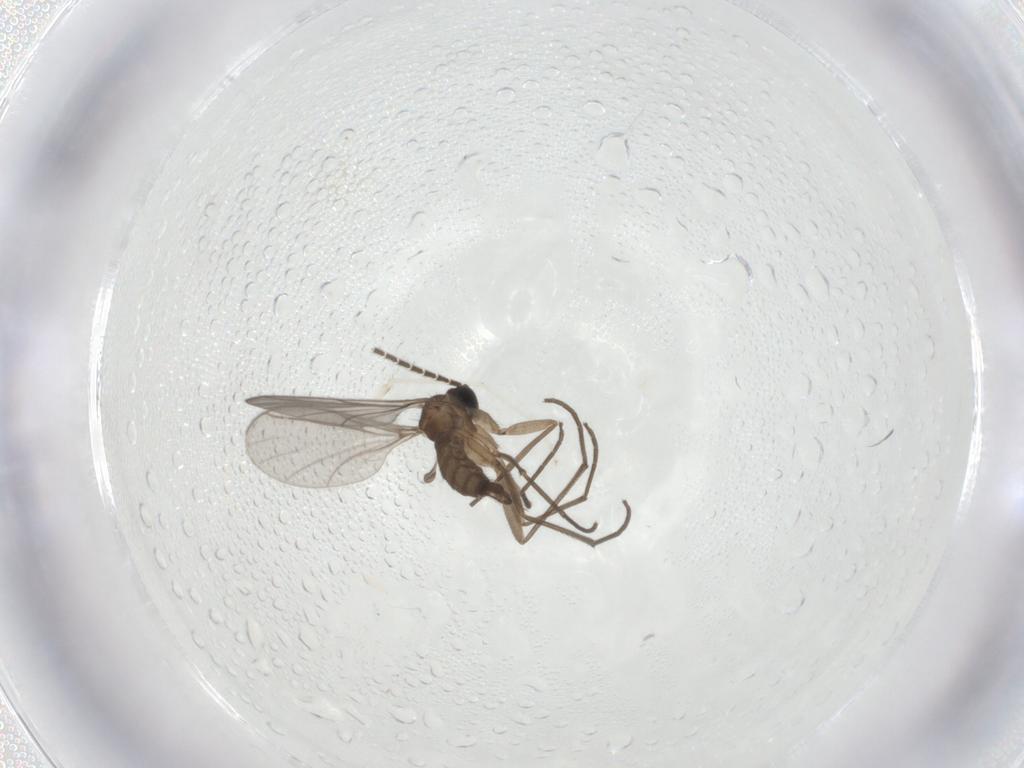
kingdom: Animalia
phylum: Arthropoda
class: Insecta
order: Diptera
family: Sciaridae
